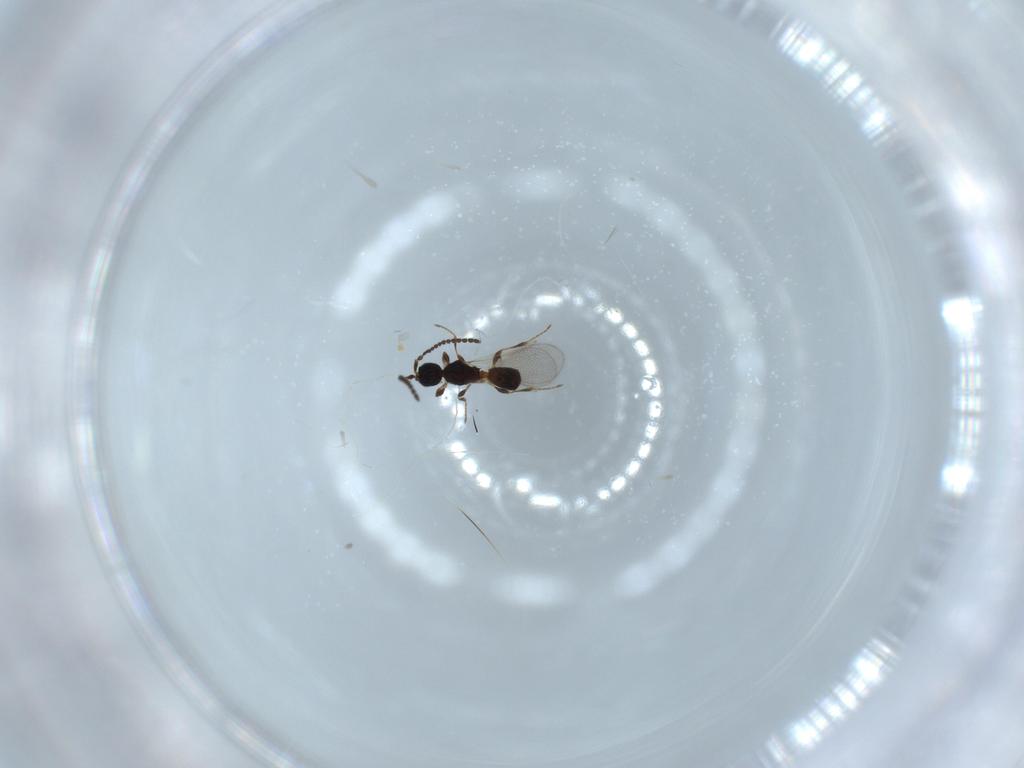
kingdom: Animalia
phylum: Arthropoda
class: Insecta
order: Hymenoptera
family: Diapriidae
